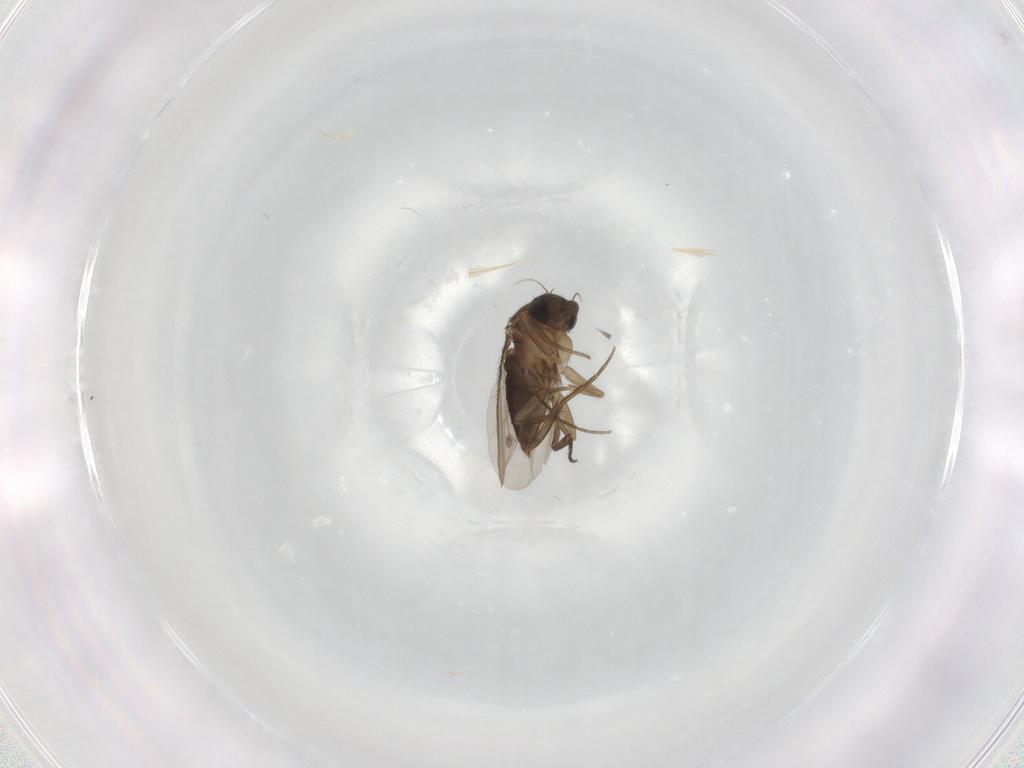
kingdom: Animalia
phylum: Arthropoda
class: Insecta
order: Diptera
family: Phoridae
